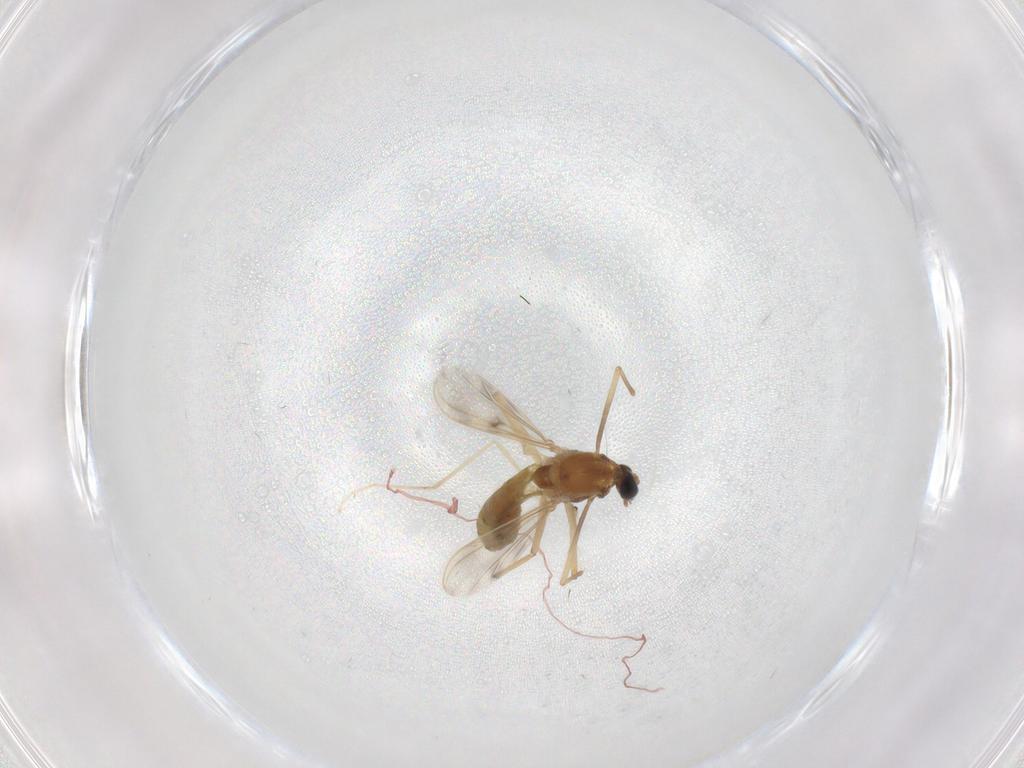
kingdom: Animalia
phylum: Arthropoda
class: Insecta
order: Diptera
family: Chironomidae
